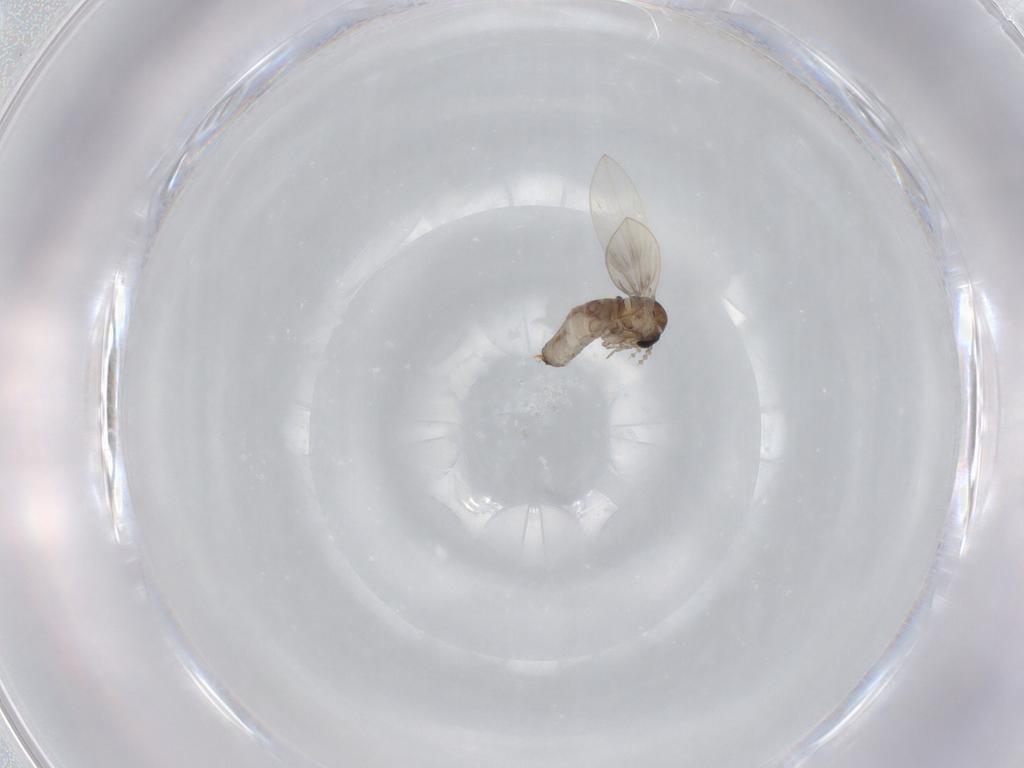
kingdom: Animalia
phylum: Arthropoda
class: Insecta
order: Diptera
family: Psychodidae
